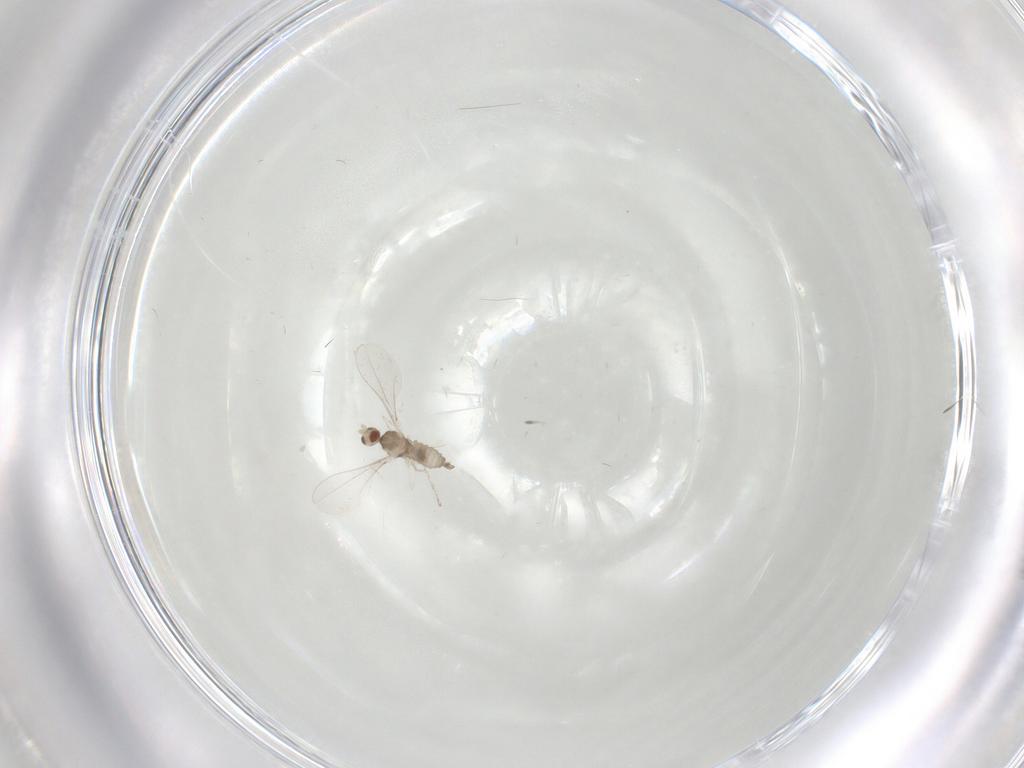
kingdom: Animalia
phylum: Arthropoda
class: Insecta
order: Diptera
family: Cecidomyiidae
